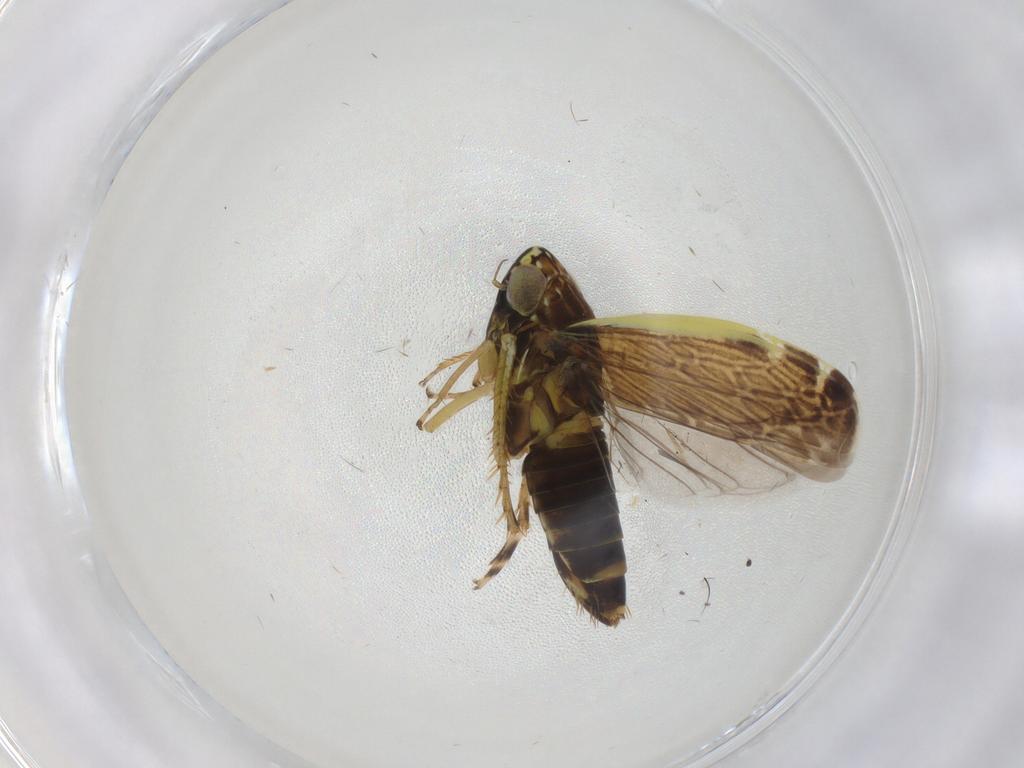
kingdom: Animalia
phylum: Arthropoda
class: Insecta
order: Hemiptera
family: Cicadellidae
